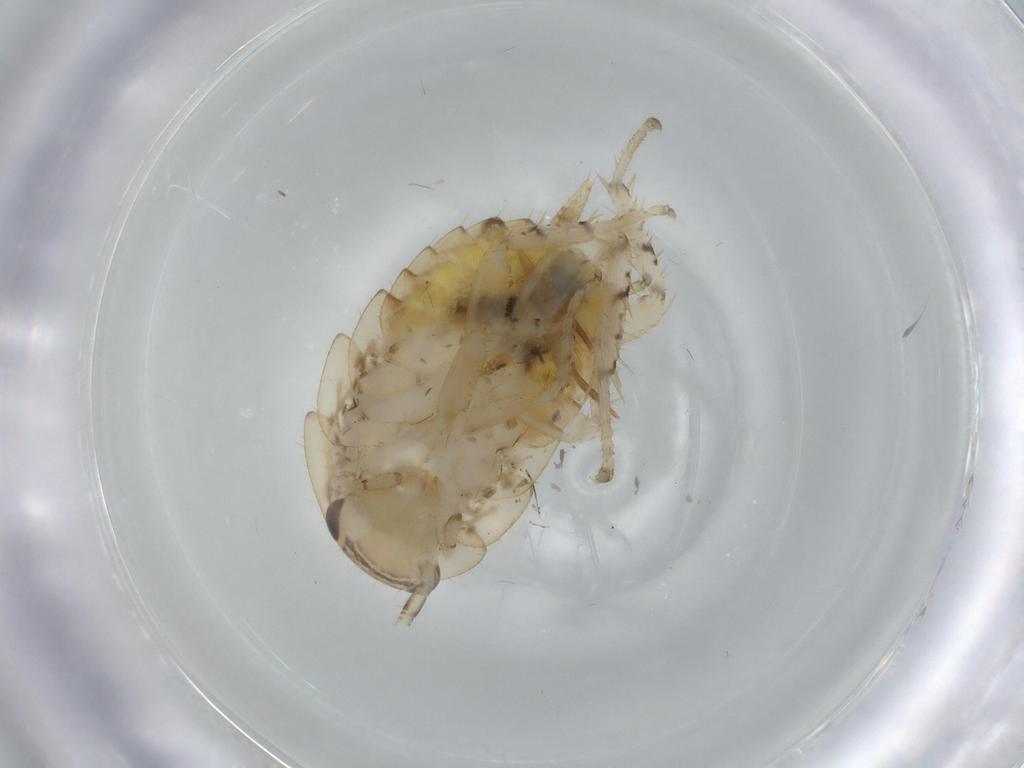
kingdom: Animalia
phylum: Arthropoda
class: Insecta
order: Blattodea
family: Ectobiidae
